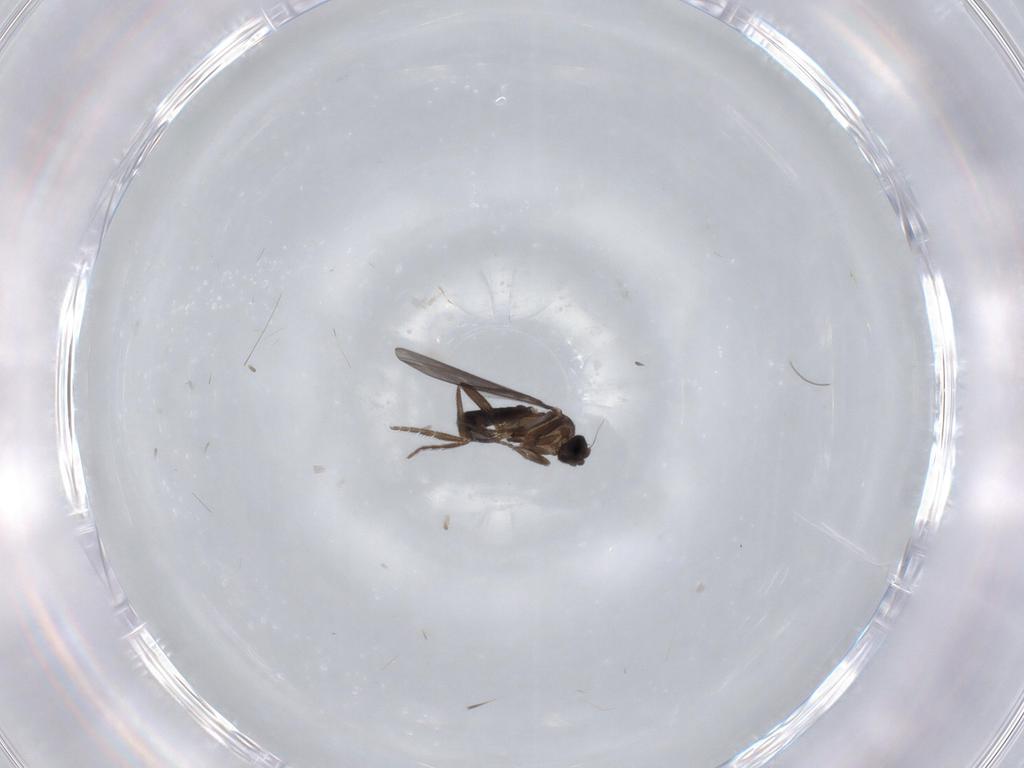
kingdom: Animalia
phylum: Arthropoda
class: Insecta
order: Diptera
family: Phoridae
